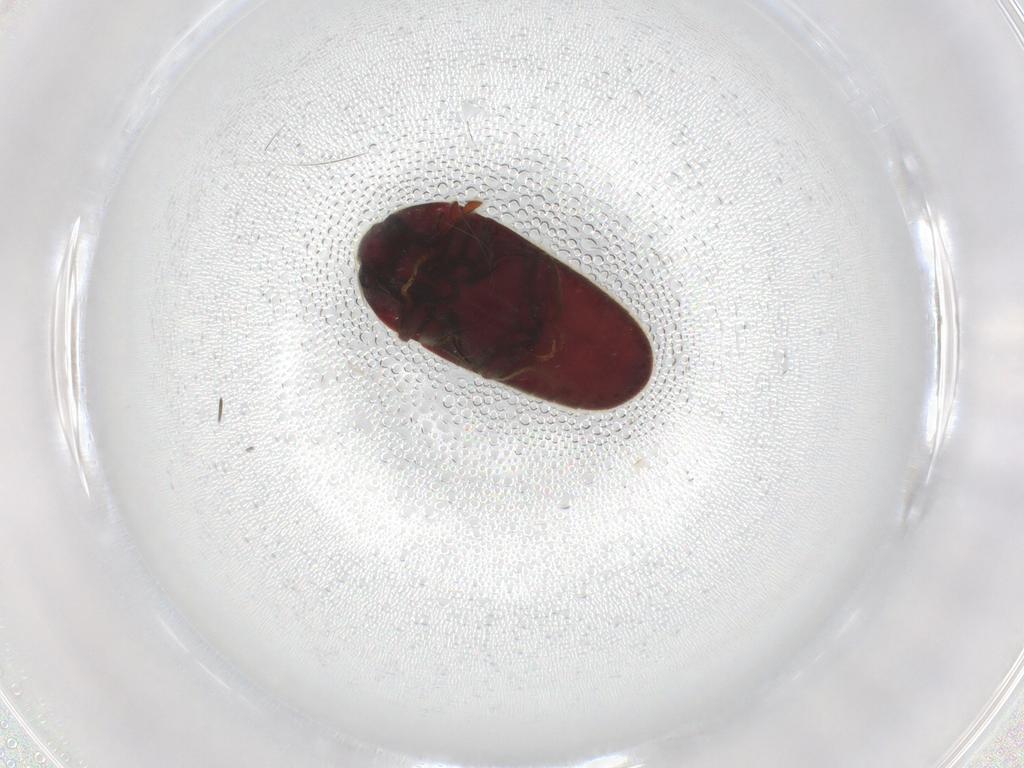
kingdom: Animalia
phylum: Arthropoda
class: Insecta
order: Coleoptera
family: Throscidae
